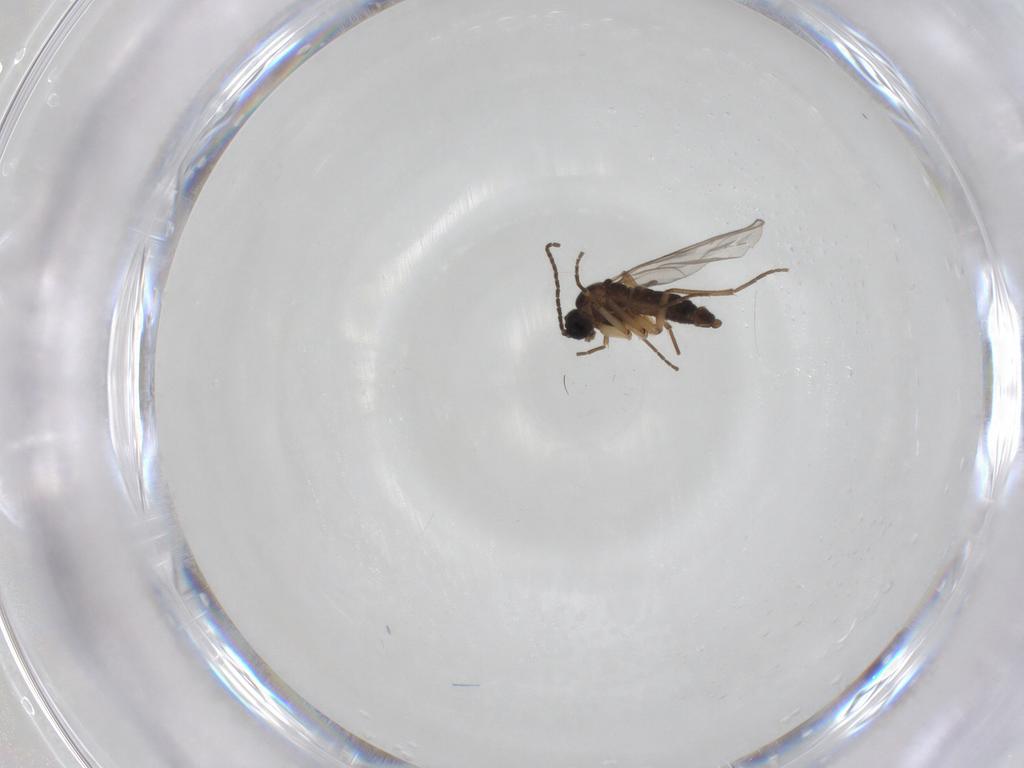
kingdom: Animalia
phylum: Arthropoda
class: Insecta
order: Diptera
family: Sciaridae
